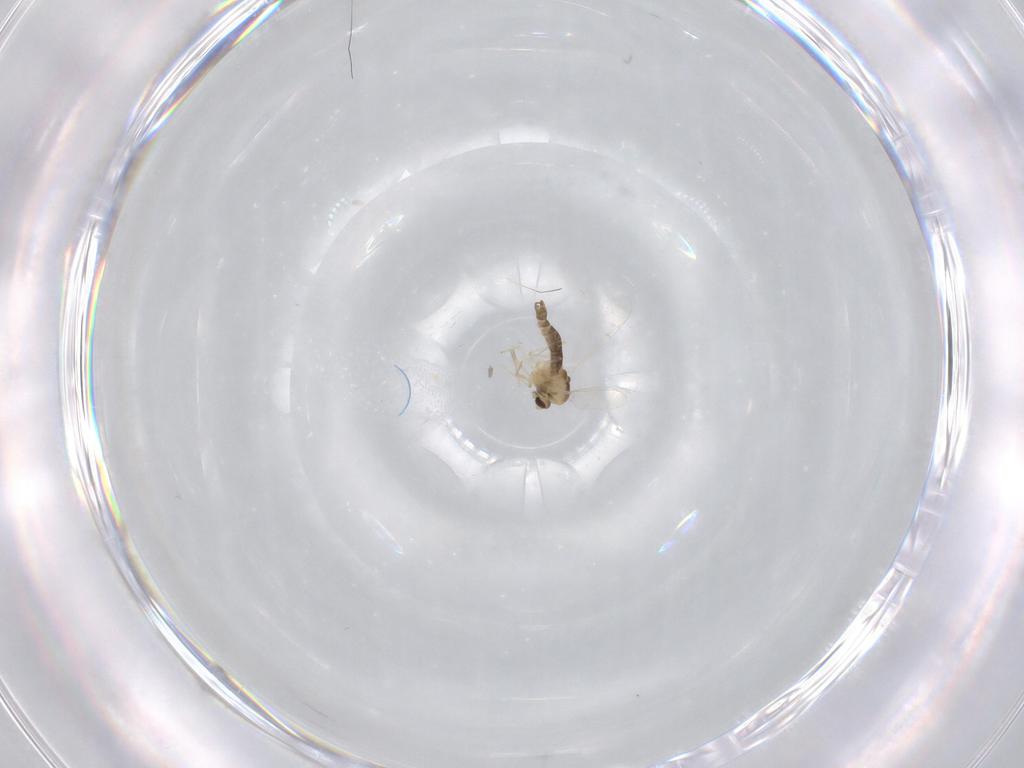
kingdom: Animalia
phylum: Arthropoda
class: Insecta
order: Diptera
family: Chironomidae
